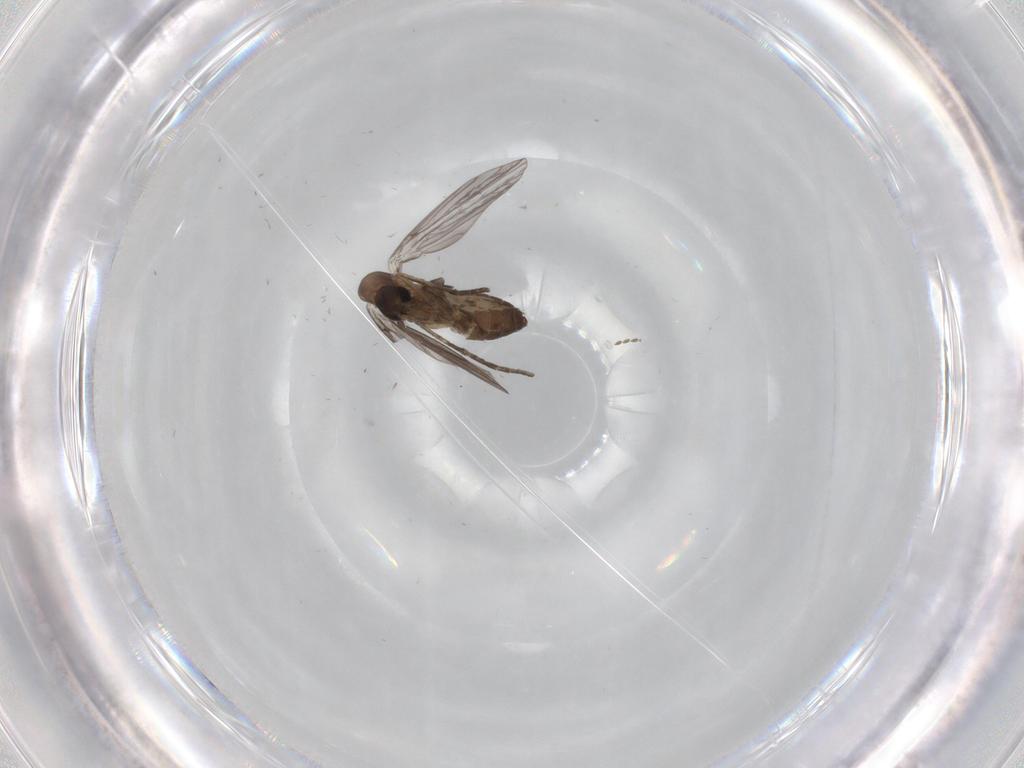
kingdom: Animalia
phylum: Arthropoda
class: Insecta
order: Diptera
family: Psychodidae
